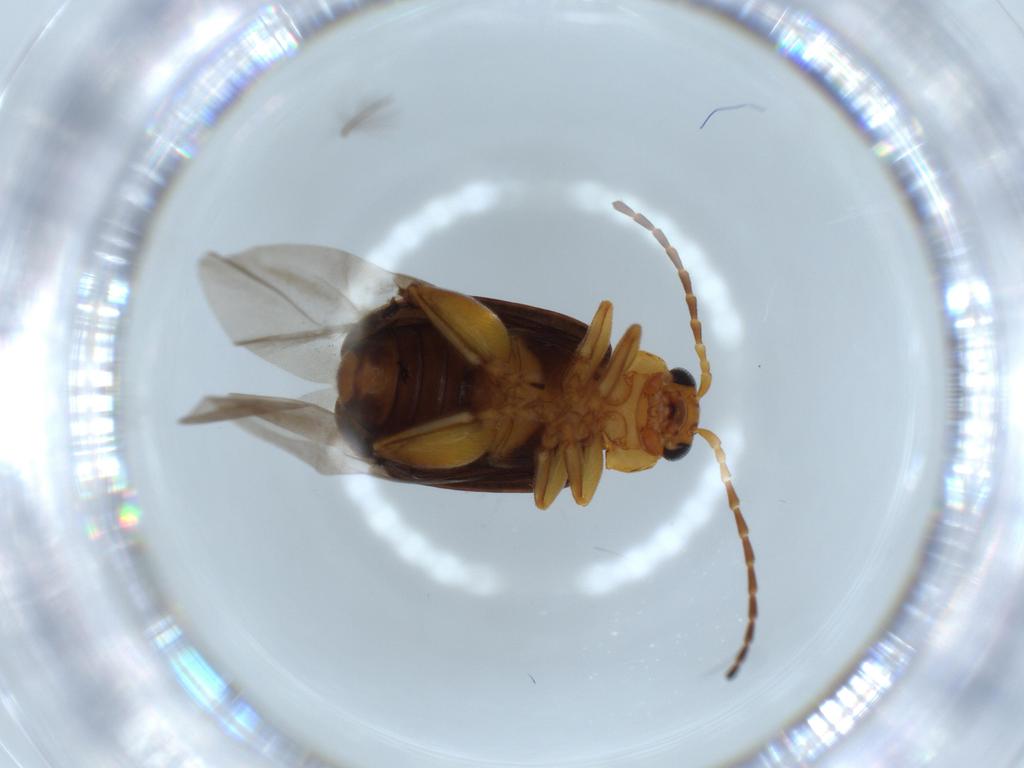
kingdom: Animalia
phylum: Arthropoda
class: Insecta
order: Coleoptera
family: Chrysomelidae
